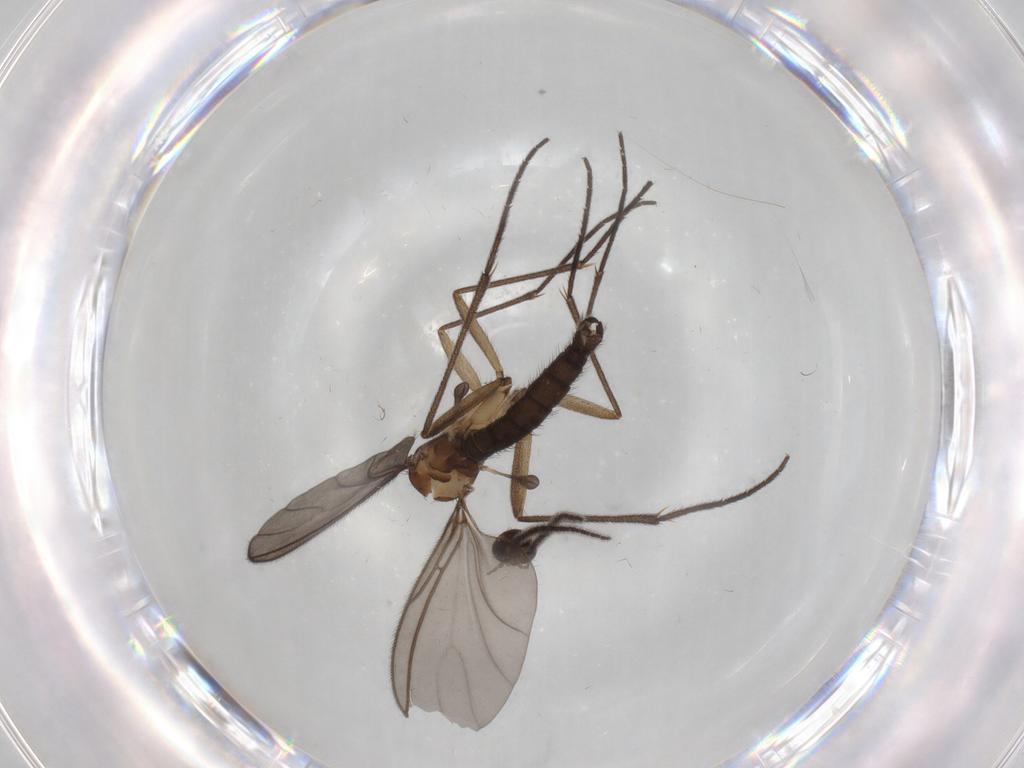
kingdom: Animalia
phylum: Arthropoda
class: Insecta
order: Diptera
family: Sciaridae
